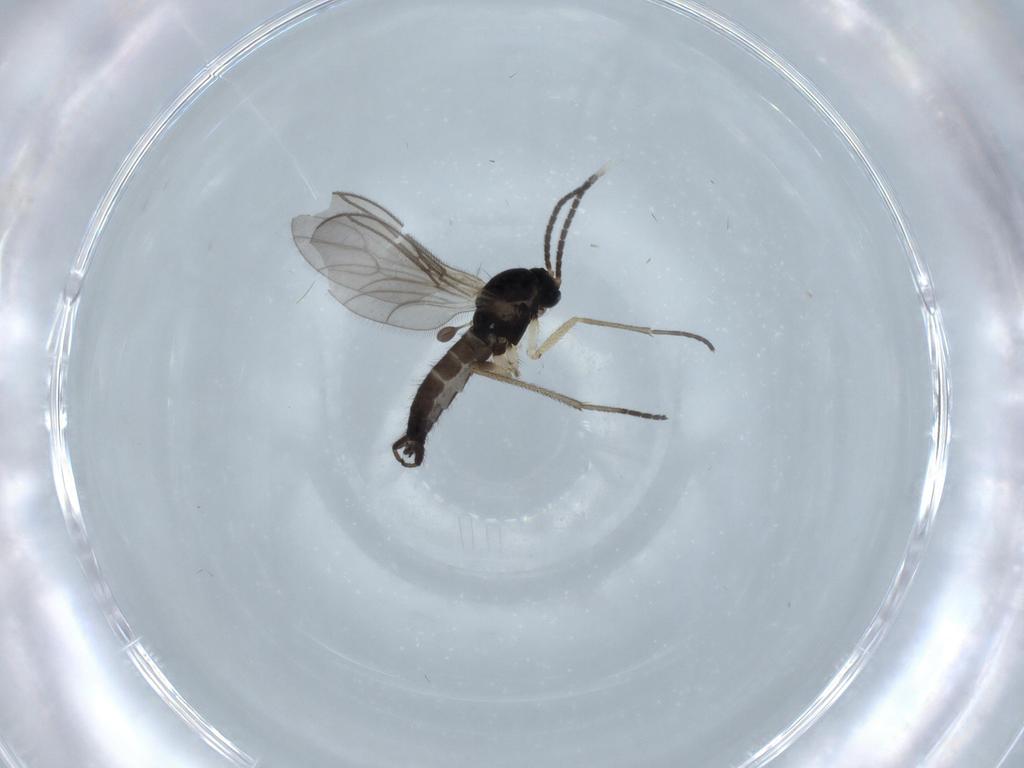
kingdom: Animalia
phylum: Arthropoda
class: Insecta
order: Diptera
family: Sciaridae
